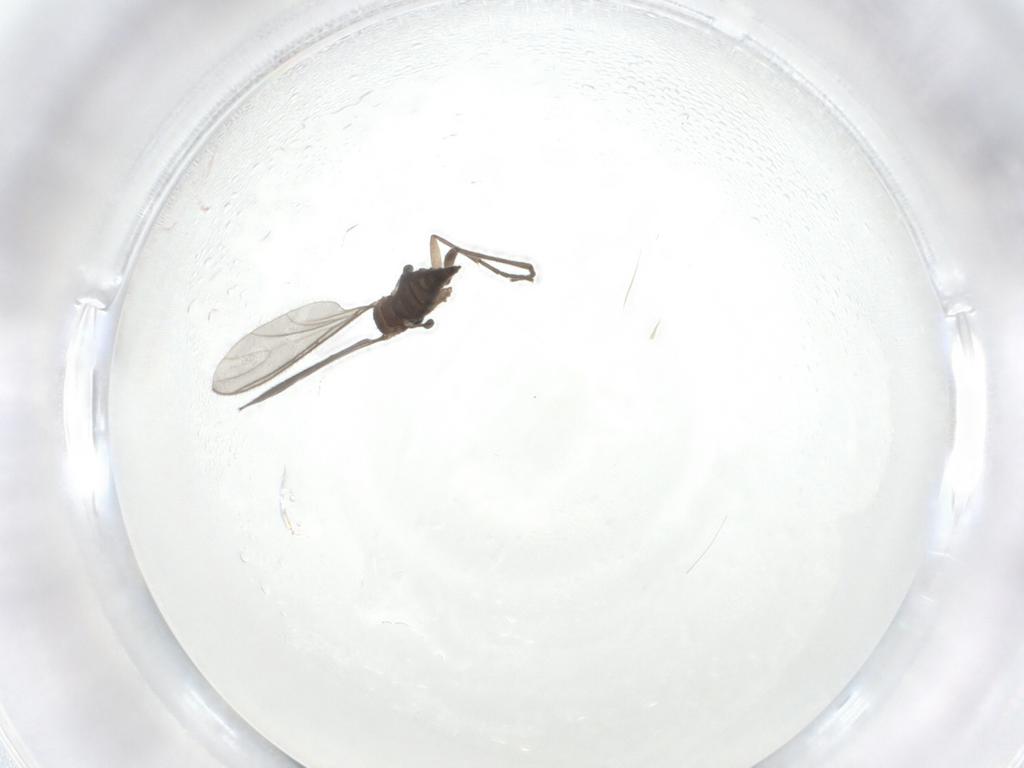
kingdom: Animalia
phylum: Arthropoda
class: Insecta
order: Diptera
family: Sciaridae
